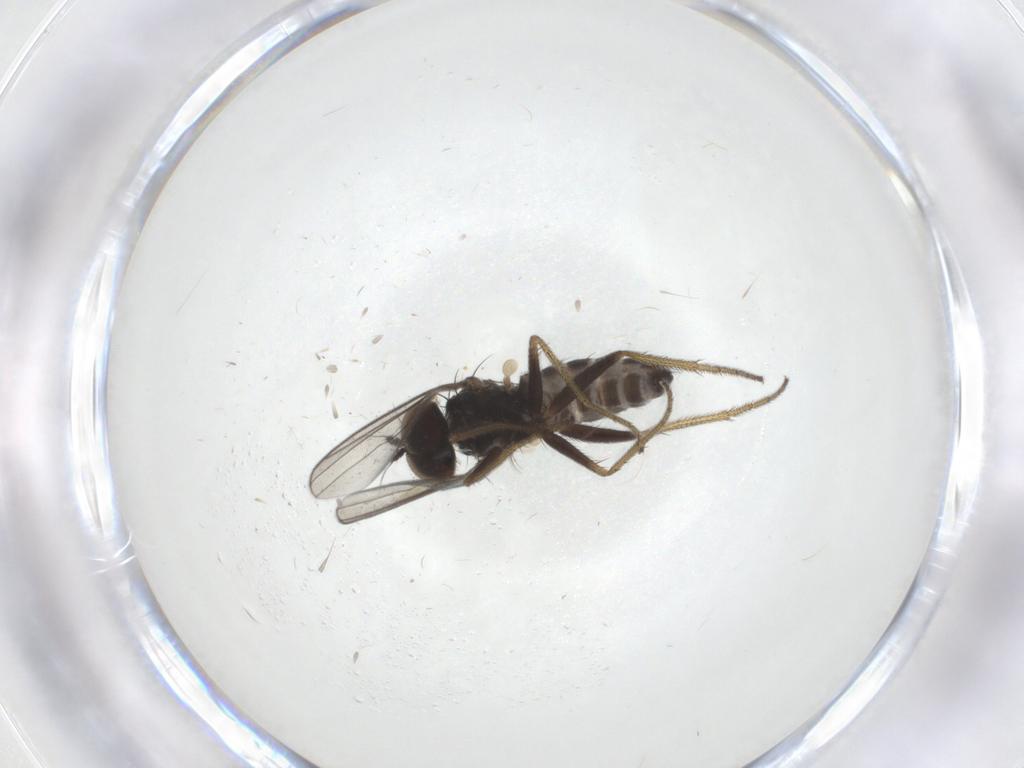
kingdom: Animalia
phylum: Arthropoda
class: Insecta
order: Diptera
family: Dolichopodidae
